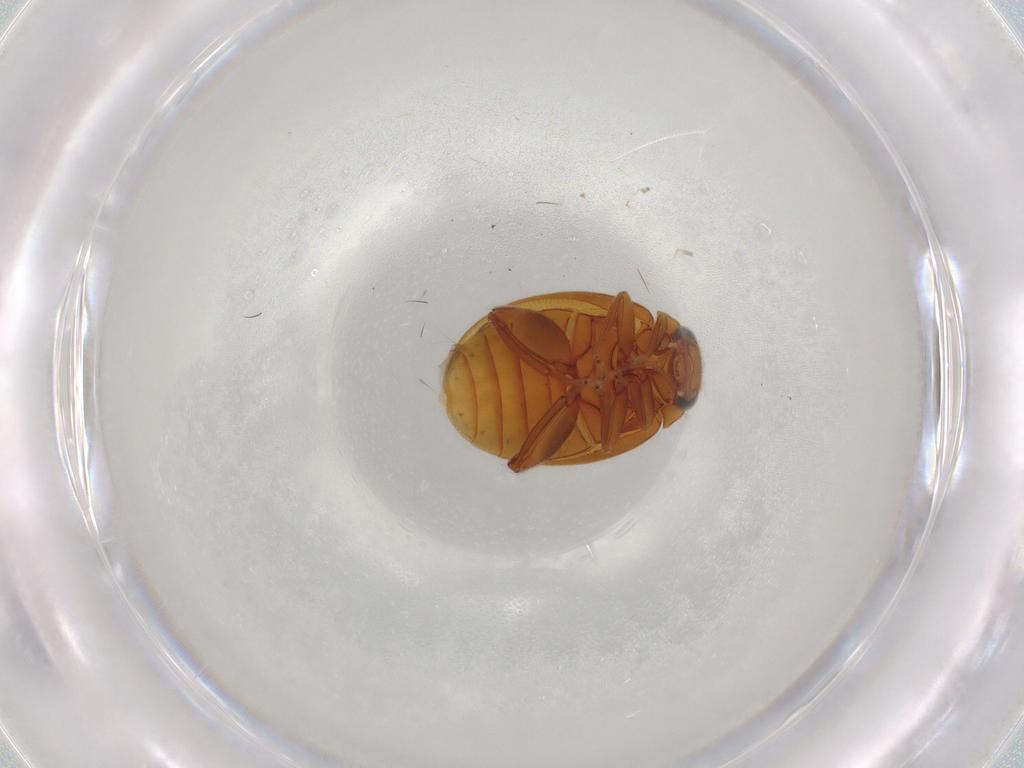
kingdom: Animalia
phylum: Arthropoda
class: Insecta
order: Coleoptera
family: Scirtidae
